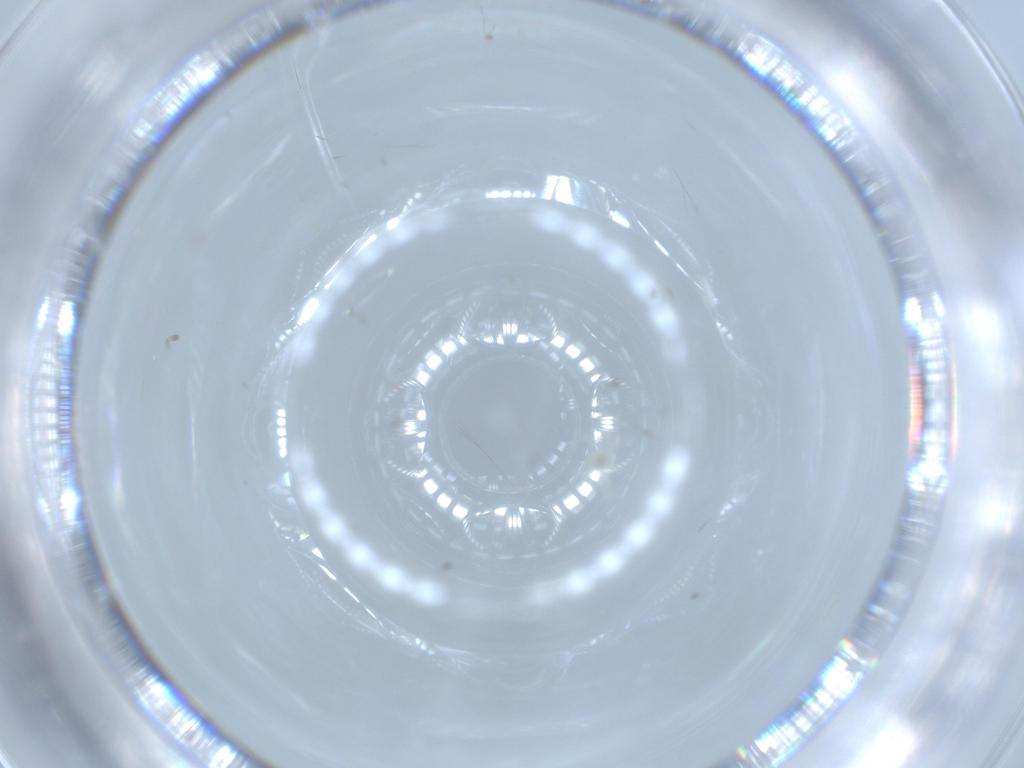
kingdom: Animalia
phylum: Arthropoda
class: Arachnida
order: Trombidiformes
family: Hydryphantidae
